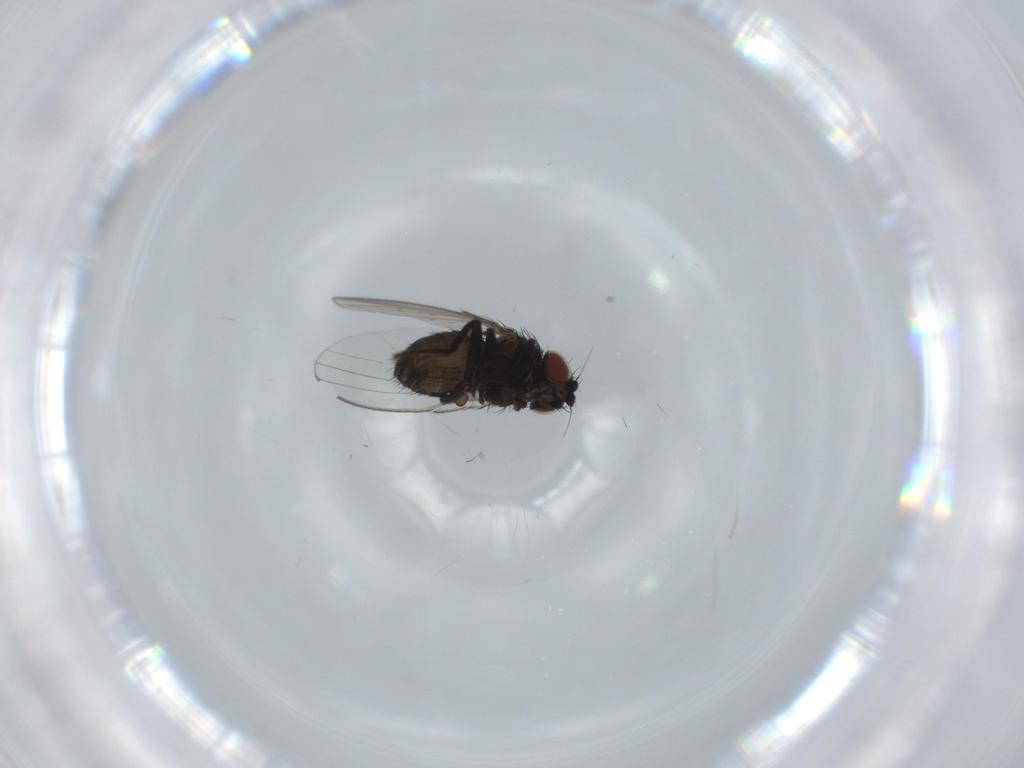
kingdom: Animalia
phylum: Arthropoda
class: Insecta
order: Diptera
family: Milichiidae
